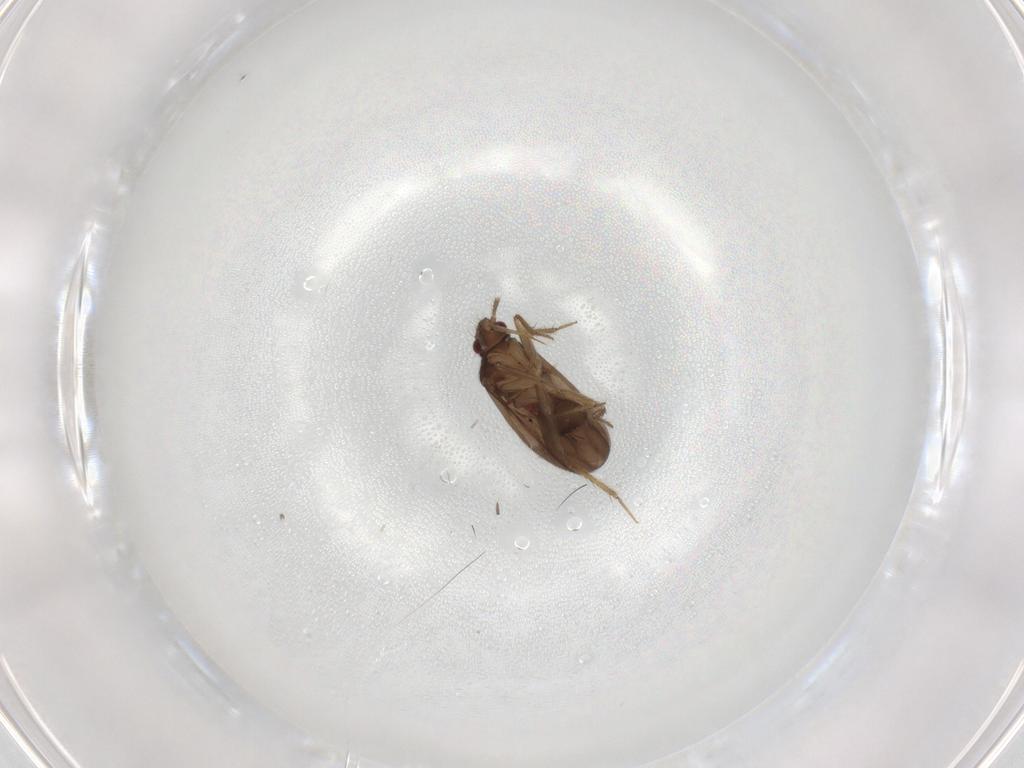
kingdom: Animalia
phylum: Arthropoda
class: Insecta
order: Hemiptera
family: Ceratocombidae
